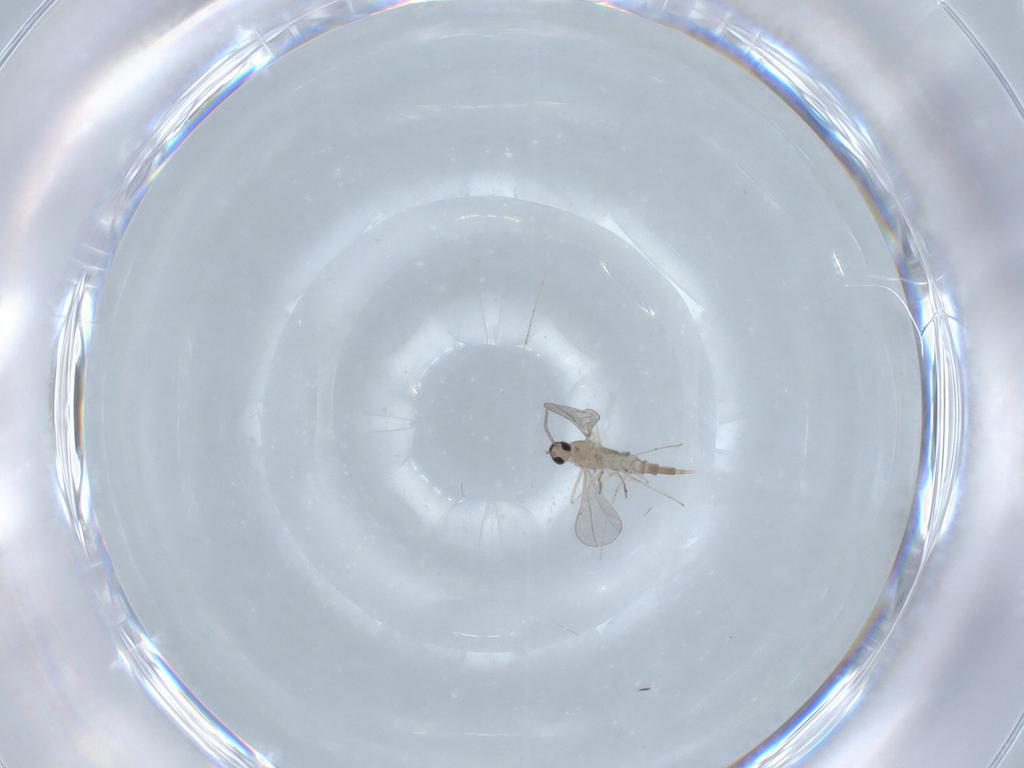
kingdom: Animalia
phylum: Arthropoda
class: Insecta
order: Diptera
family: Cecidomyiidae
